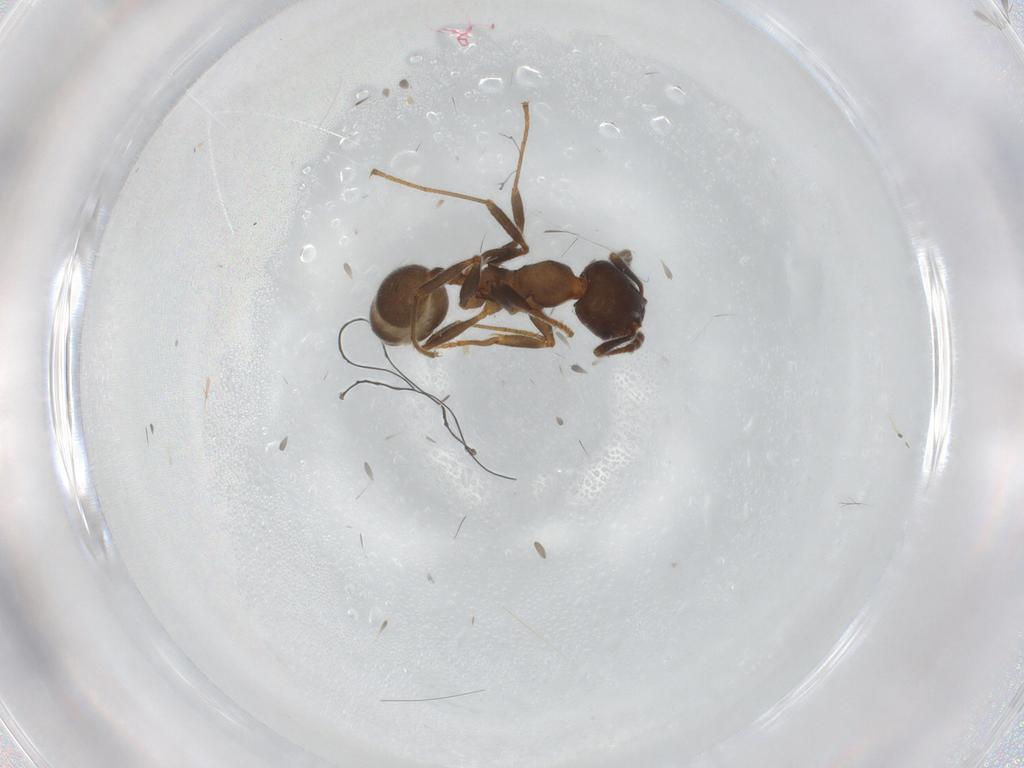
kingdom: Animalia
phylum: Arthropoda
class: Insecta
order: Hymenoptera
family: Formicidae
